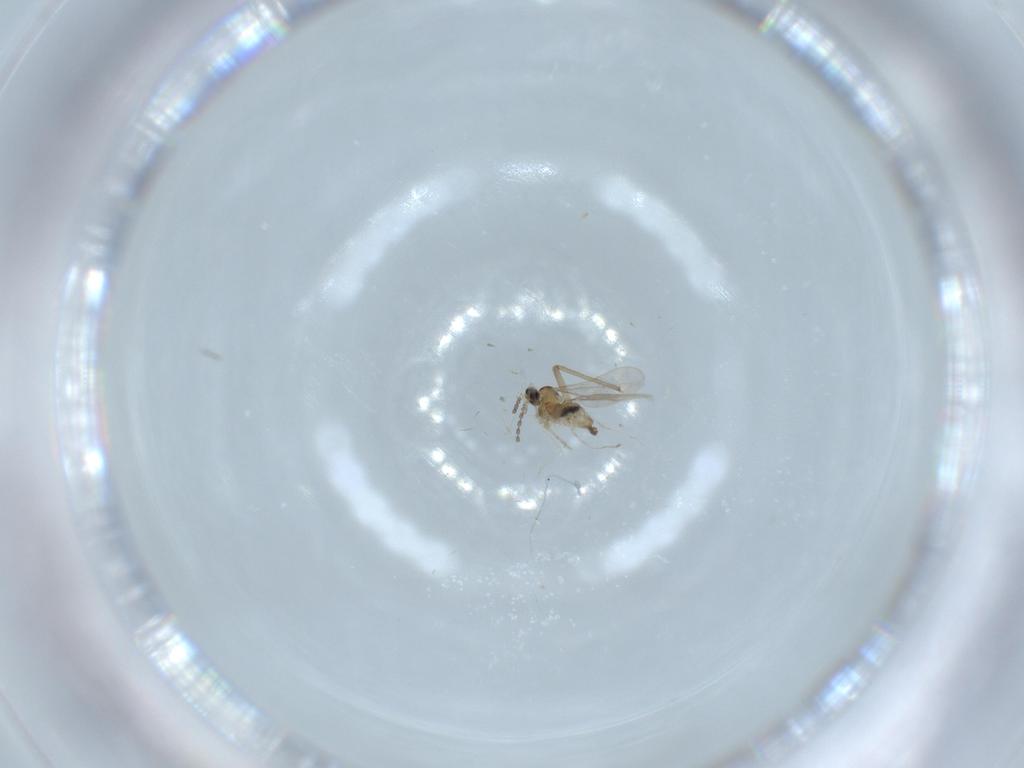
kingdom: Animalia
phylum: Arthropoda
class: Insecta
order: Diptera
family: Cecidomyiidae
